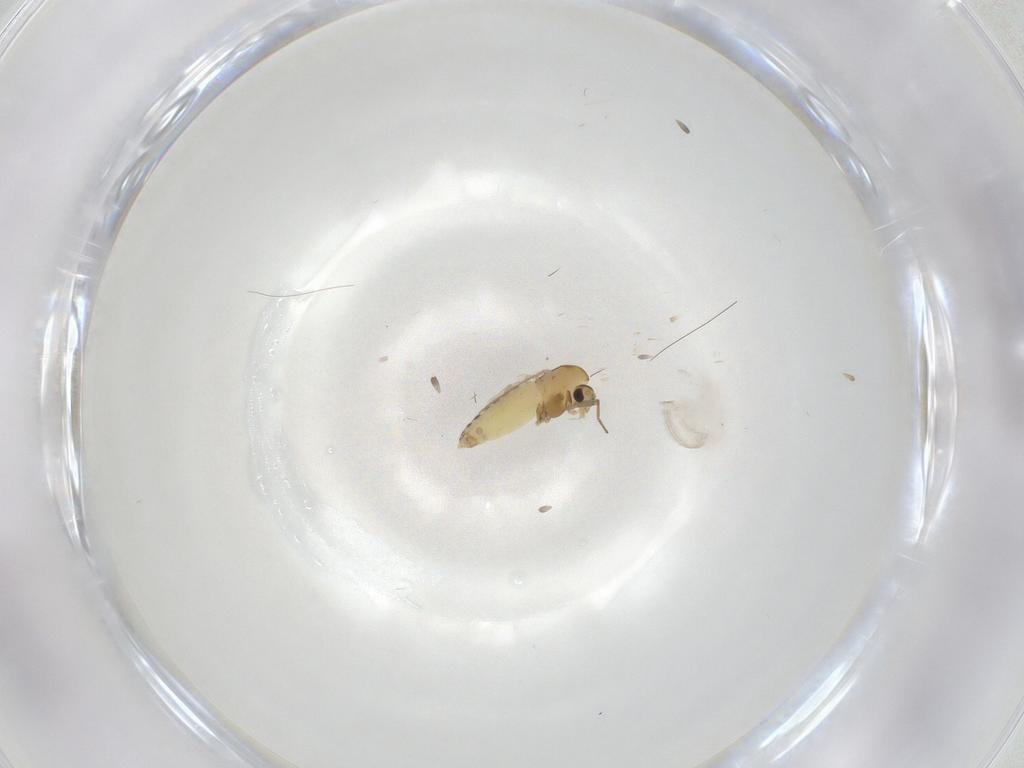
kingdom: Animalia
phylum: Arthropoda
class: Insecta
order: Diptera
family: Chironomidae
